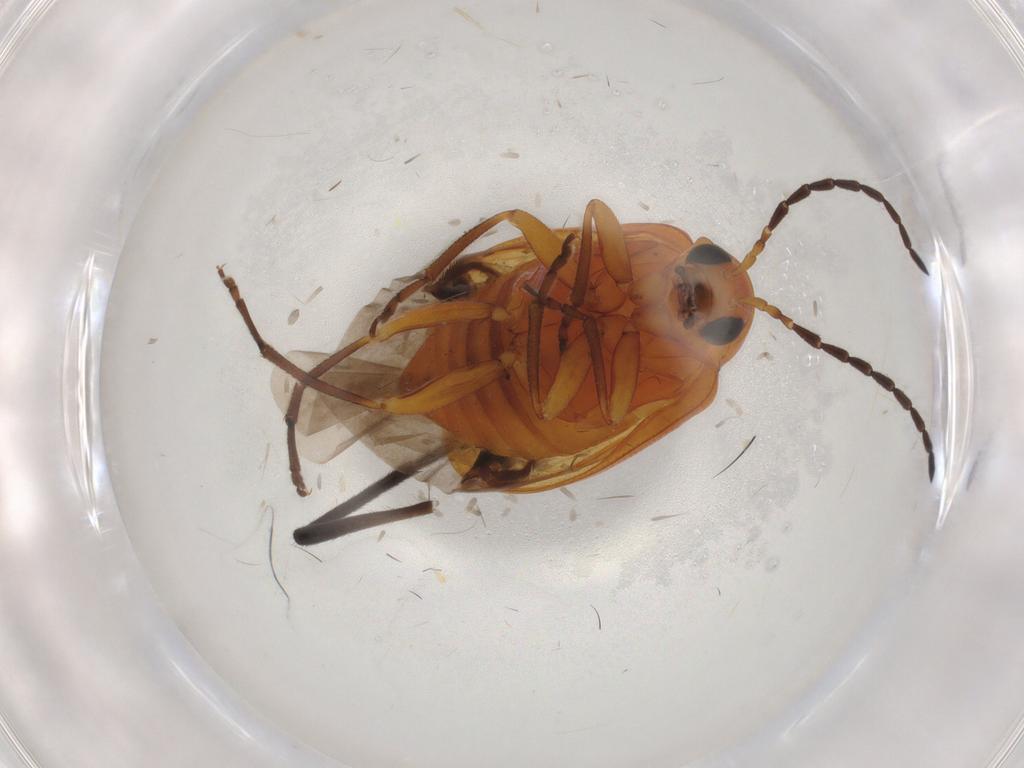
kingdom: Animalia
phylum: Arthropoda
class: Insecta
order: Coleoptera
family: Chrysomelidae
